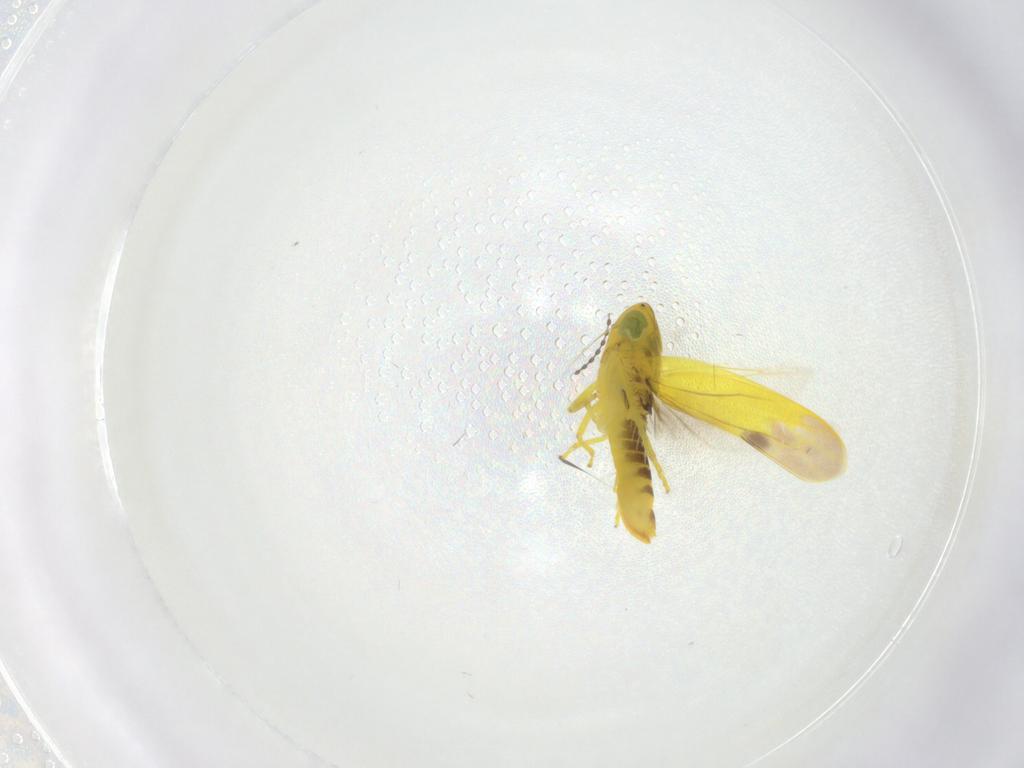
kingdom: Animalia
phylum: Arthropoda
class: Insecta
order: Hemiptera
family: Cicadellidae
